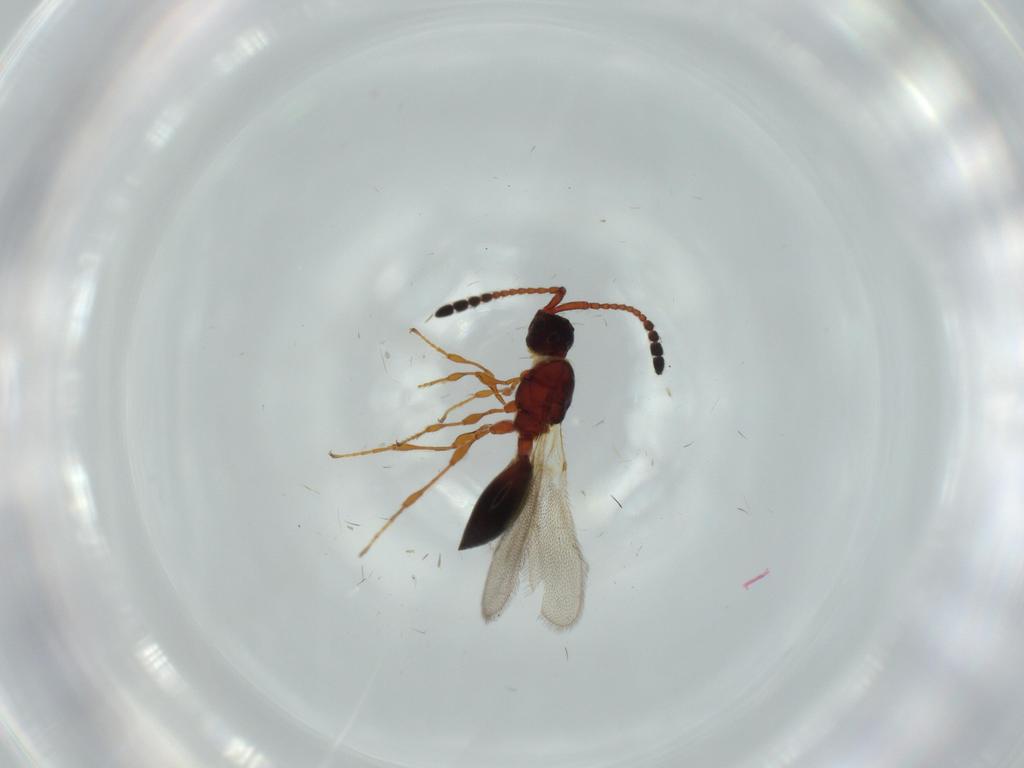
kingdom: Animalia
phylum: Arthropoda
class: Insecta
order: Hymenoptera
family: Diapriidae
